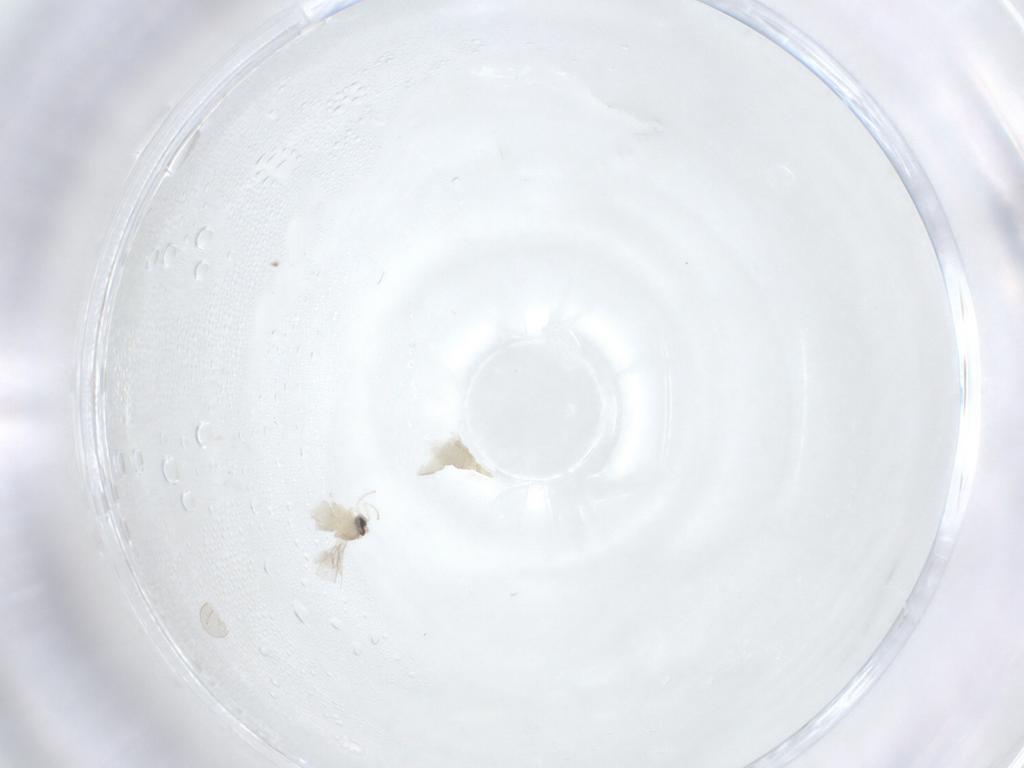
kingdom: Animalia
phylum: Arthropoda
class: Insecta
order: Diptera
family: Cecidomyiidae
